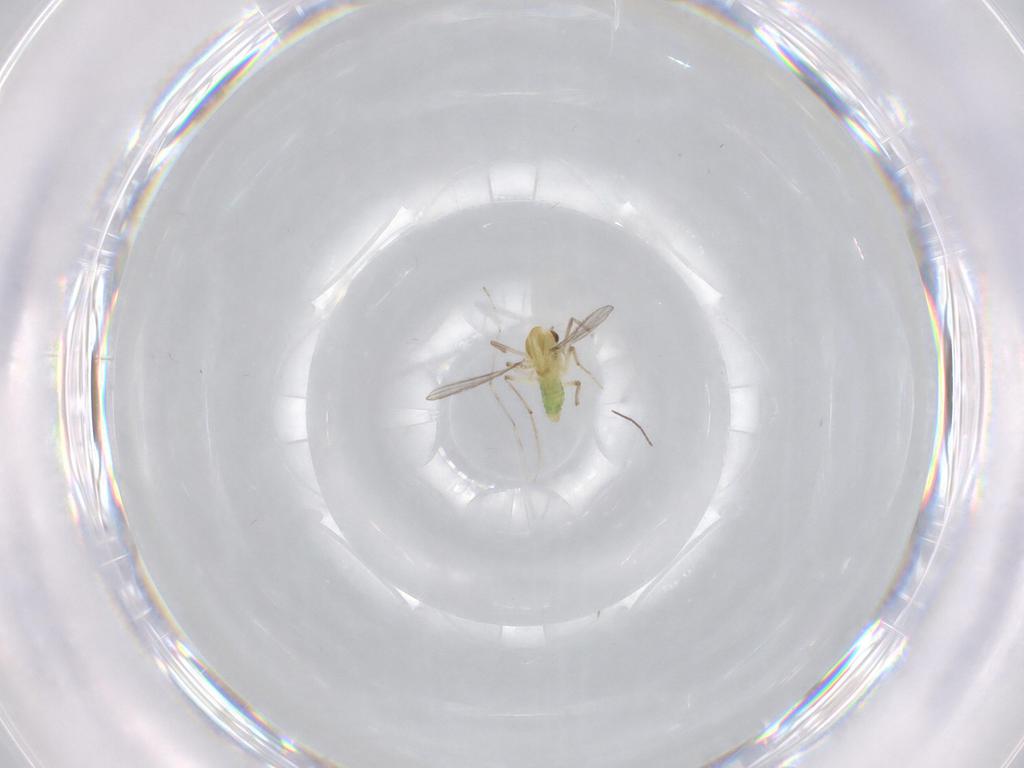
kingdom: Animalia
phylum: Arthropoda
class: Insecta
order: Diptera
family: Chironomidae
